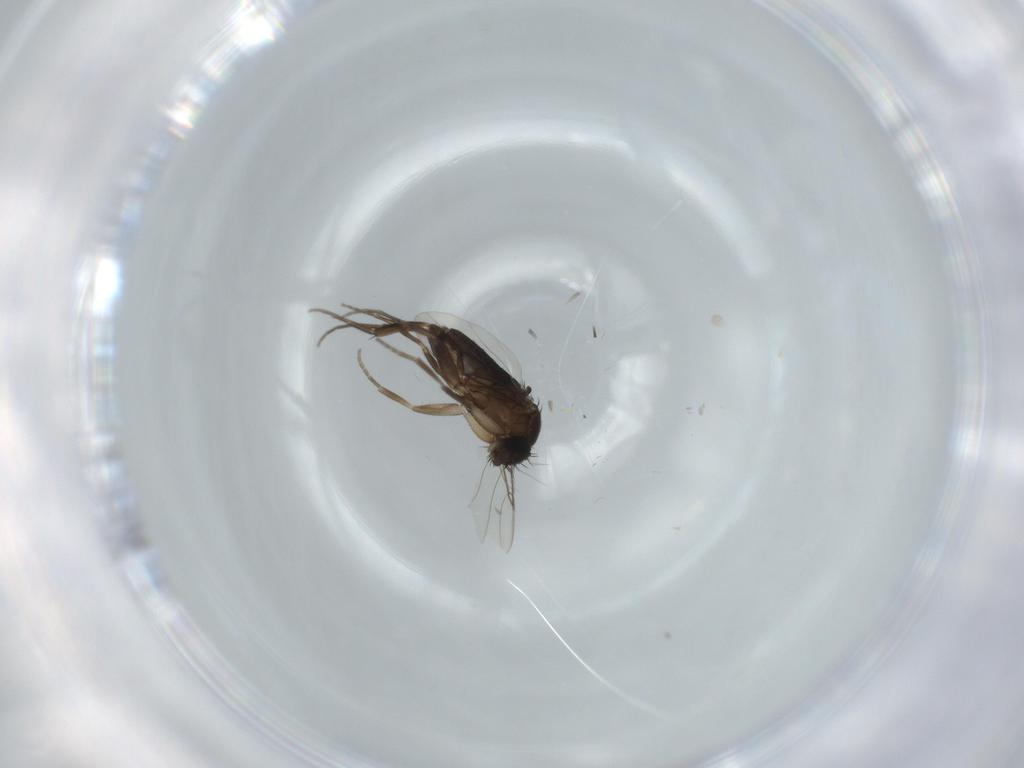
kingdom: Animalia
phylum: Arthropoda
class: Insecta
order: Diptera
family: Phoridae
